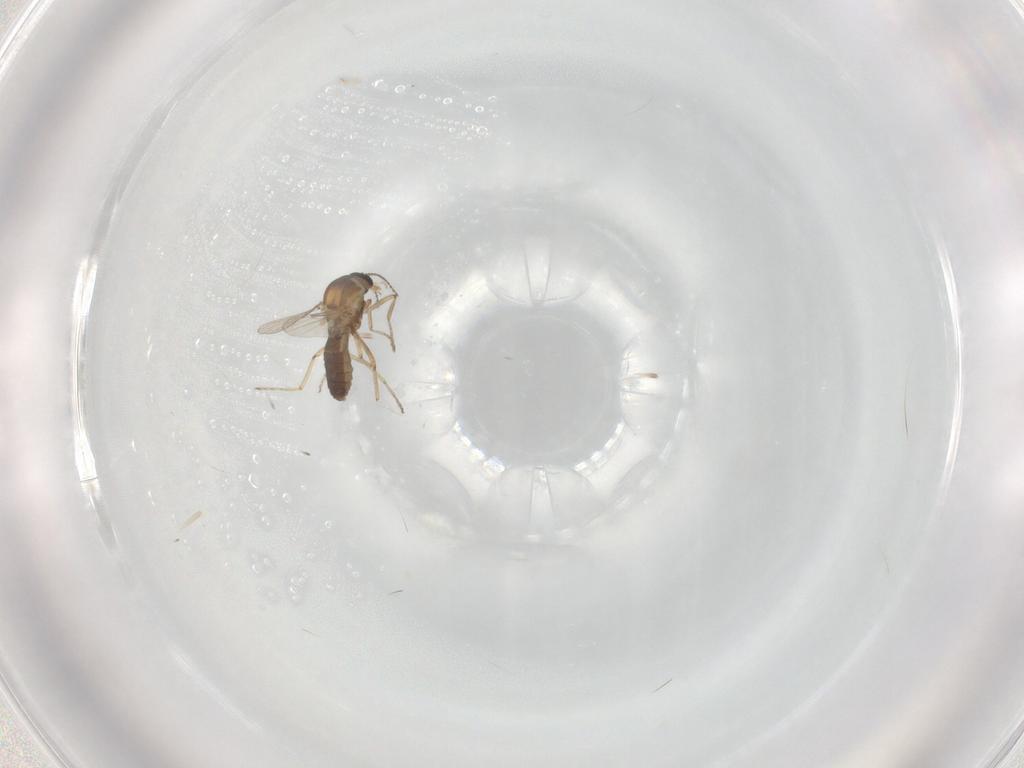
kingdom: Animalia
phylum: Arthropoda
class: Insecta
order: Diptera
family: Ceratopogonidae
